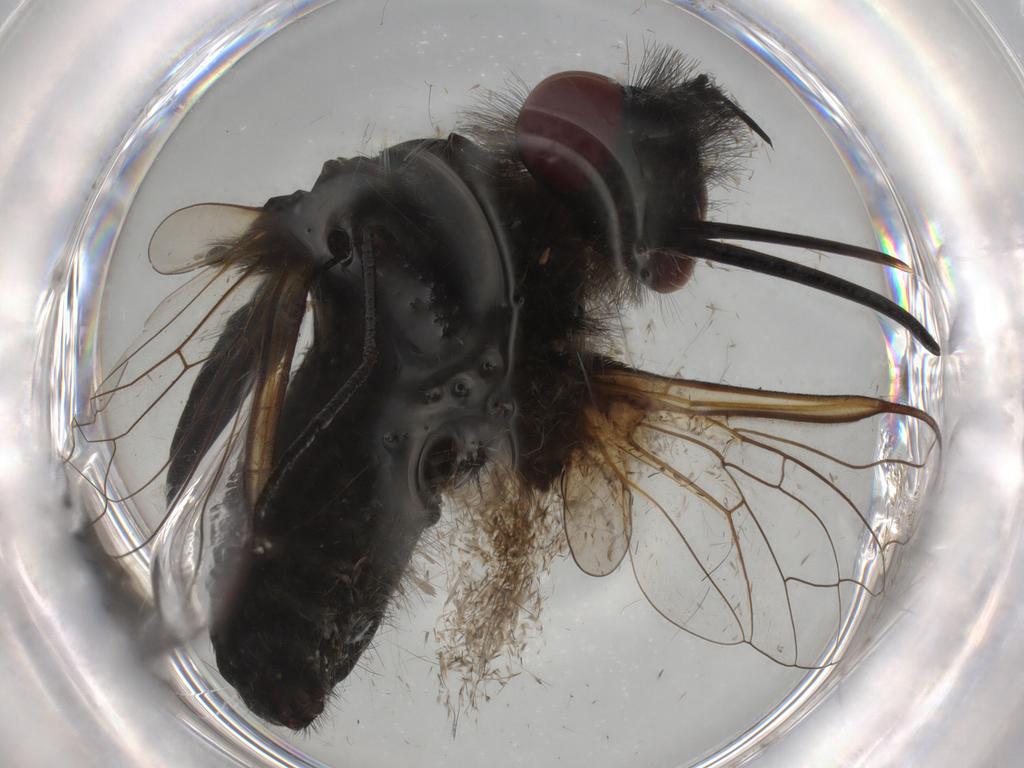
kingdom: Animalia
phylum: Arthropoda
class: Insecta
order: Diptera
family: Bombyliidae
